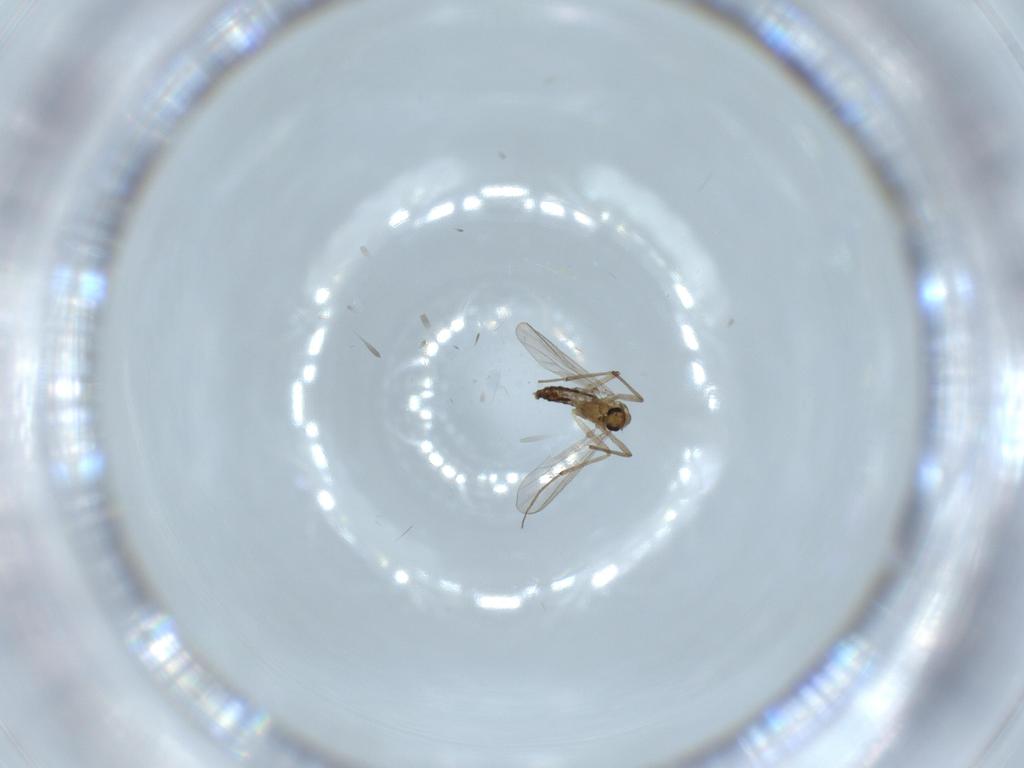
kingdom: Animalia
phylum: Arthropoda
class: Insecta
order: Diptera
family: Chironomidae
